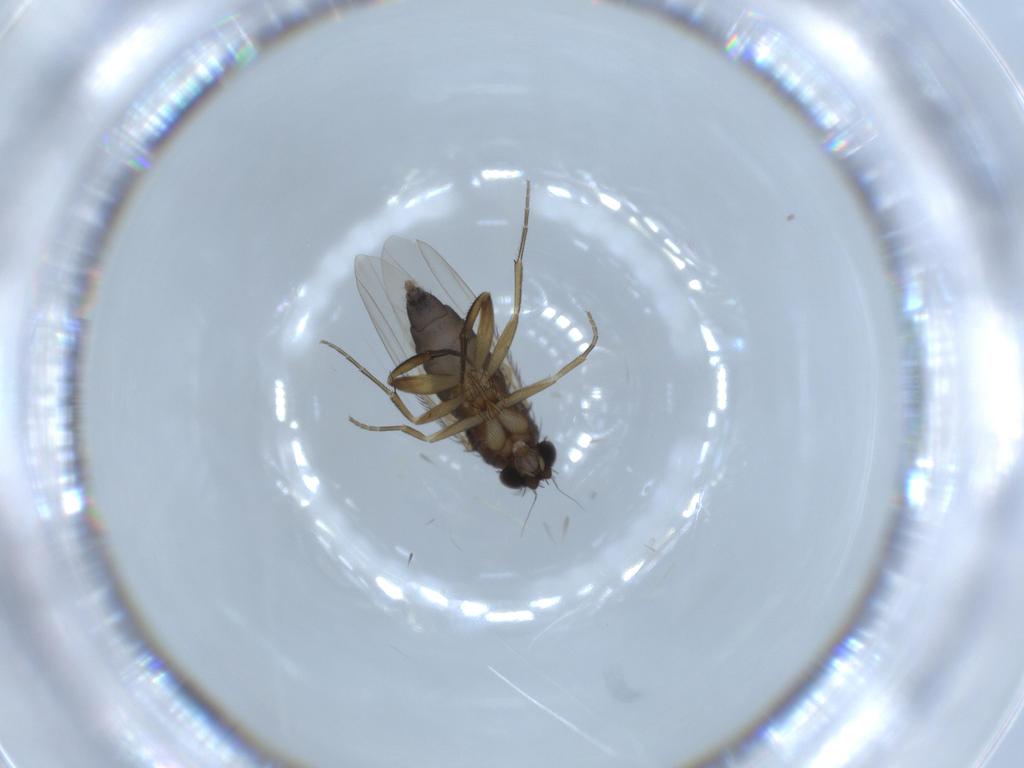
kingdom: Animalia
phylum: Arthropoda
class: Insecta
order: Diptera
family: Phoridae
